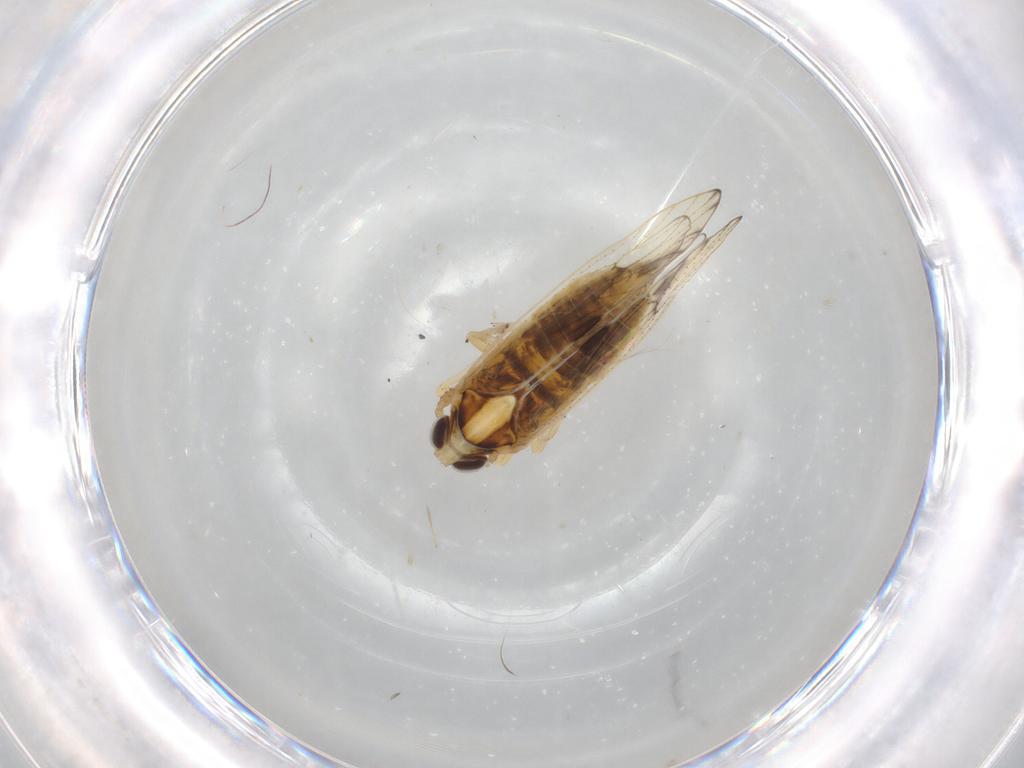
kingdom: Animalia
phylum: Arthropoda
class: Insecta
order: Hemiptera
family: Delphacidae
